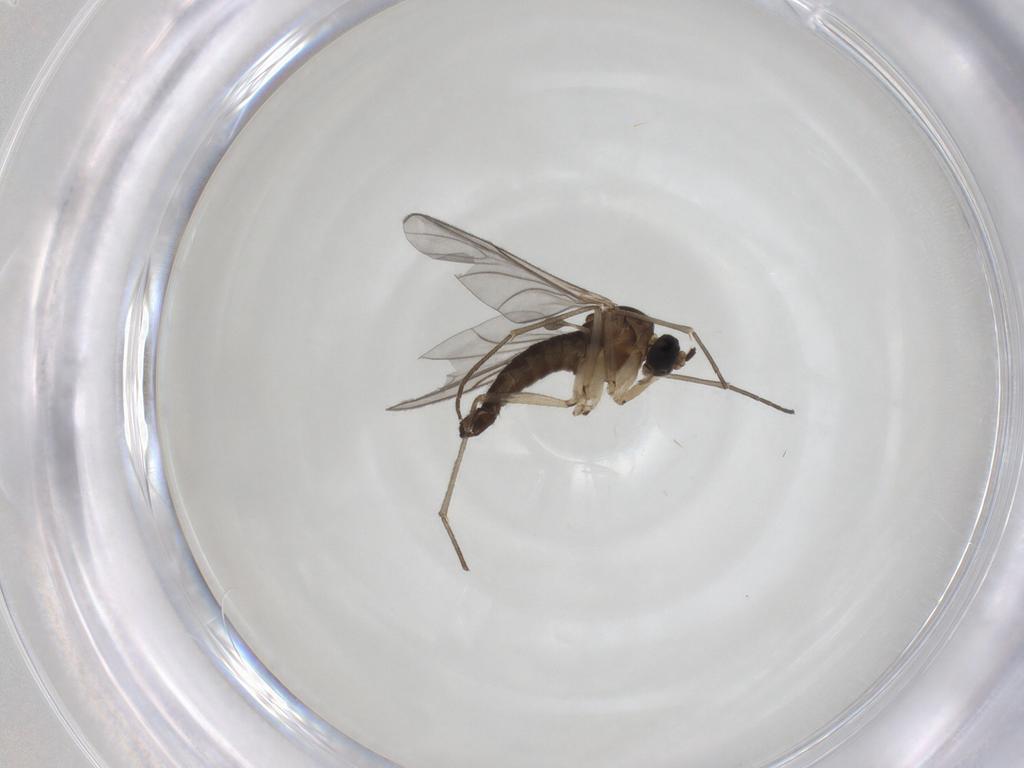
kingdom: Animalia
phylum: Arthropoda
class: Insecta
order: Diptera
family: Sciaridae
